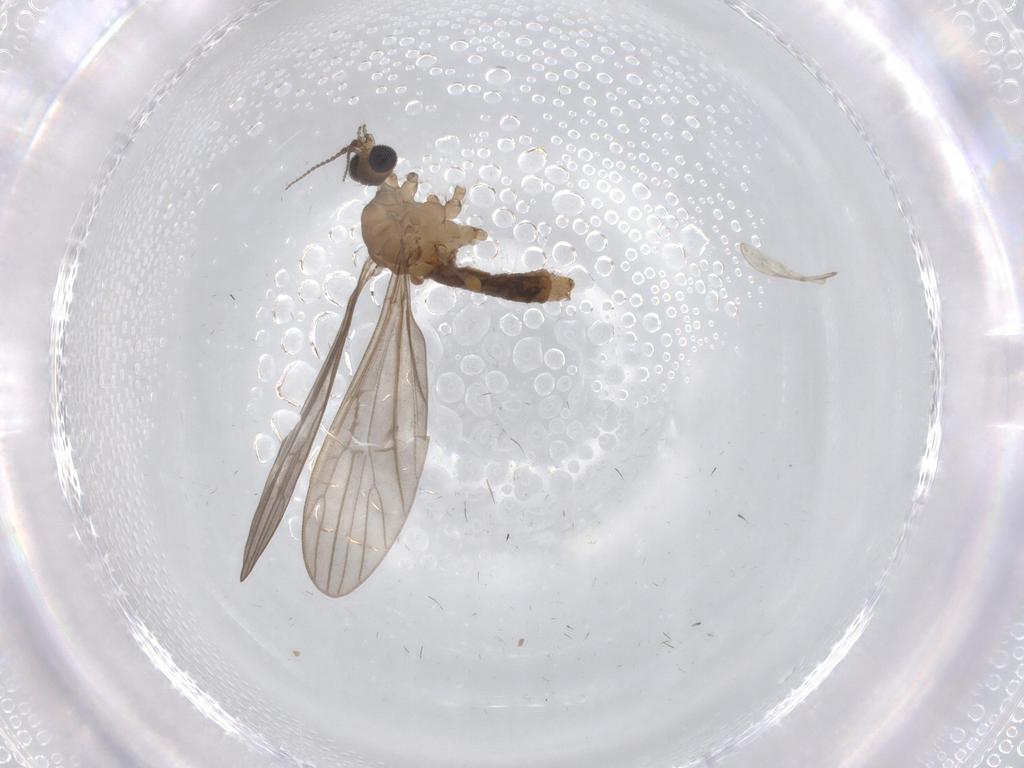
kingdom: Animalia
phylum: Arthropoda
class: Insecta
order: Diptera
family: Limoniidae
